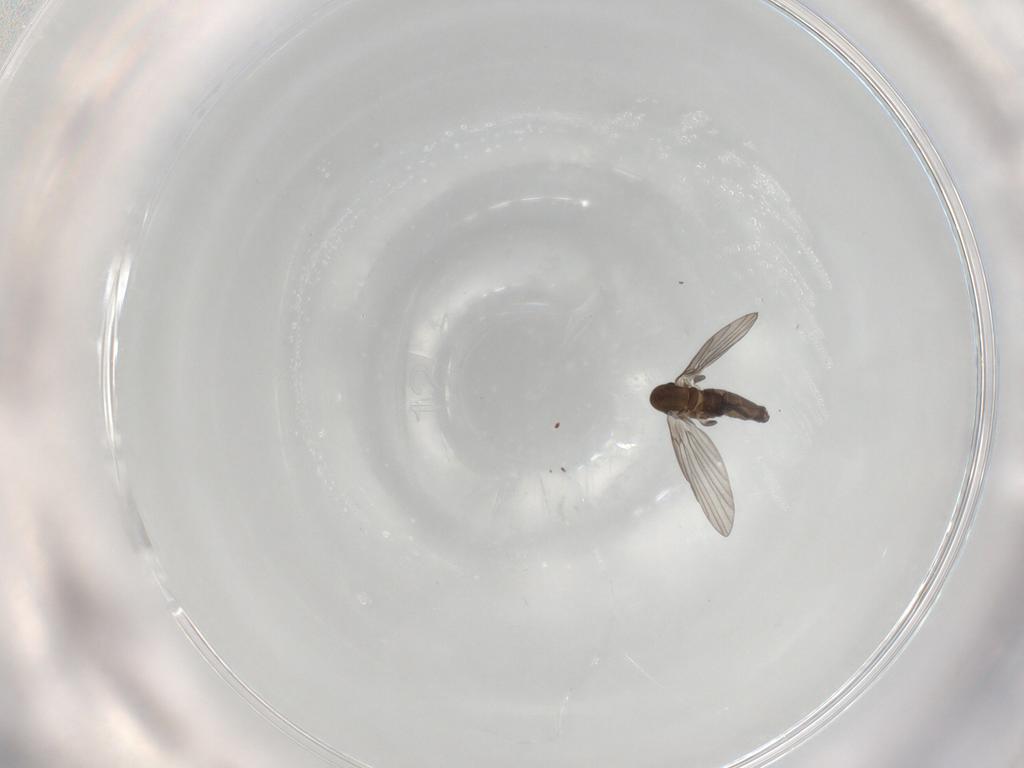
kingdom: Animalia
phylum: Arthropoda
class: Insecta
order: Diptera
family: Psychodidae
